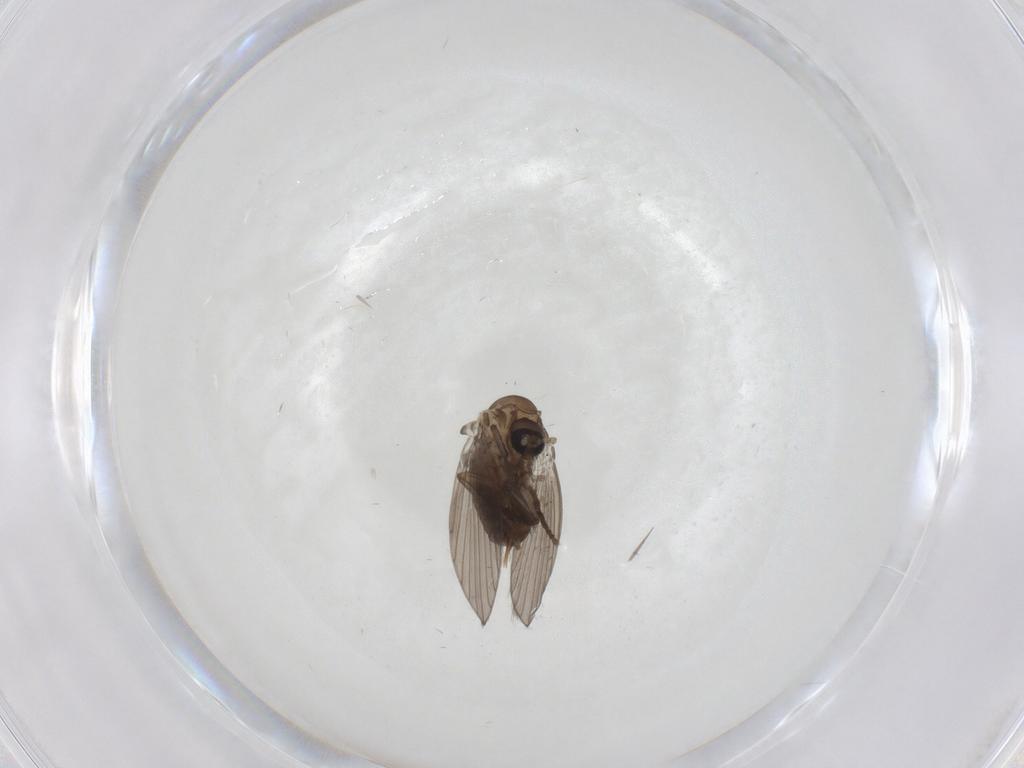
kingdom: Animalia
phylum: Arthropoda
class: Insecta
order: Diptera
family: Psychodidae
